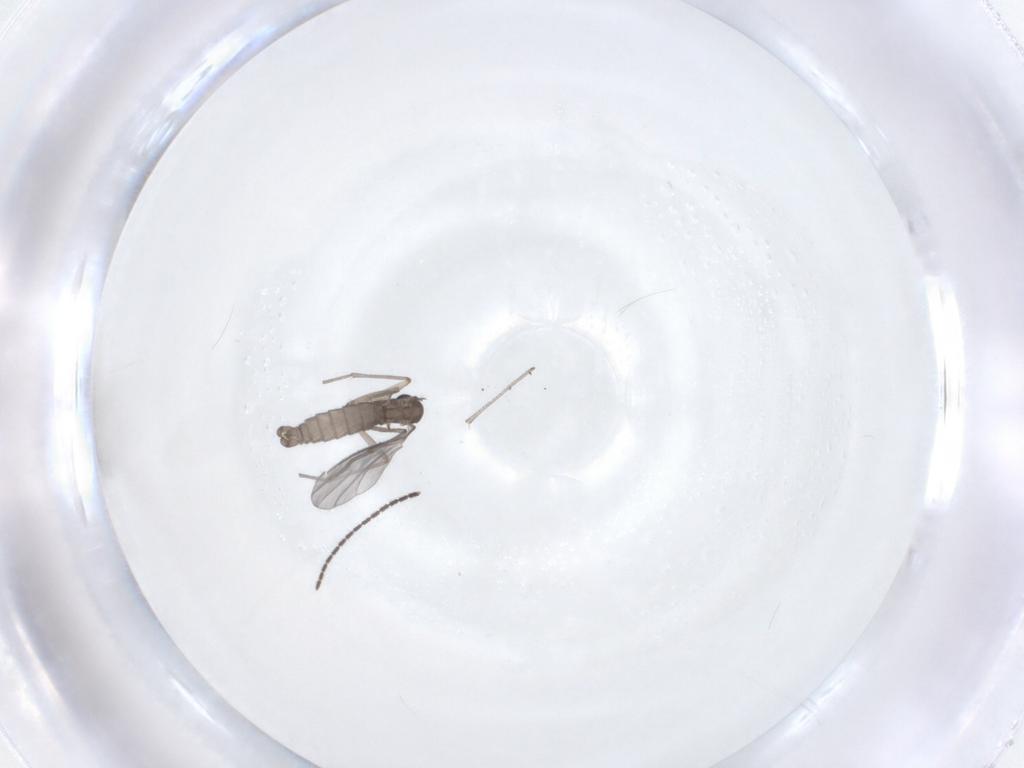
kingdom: Animalia
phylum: Arthropoda
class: Insecta
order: Diptera
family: Sciaridae
